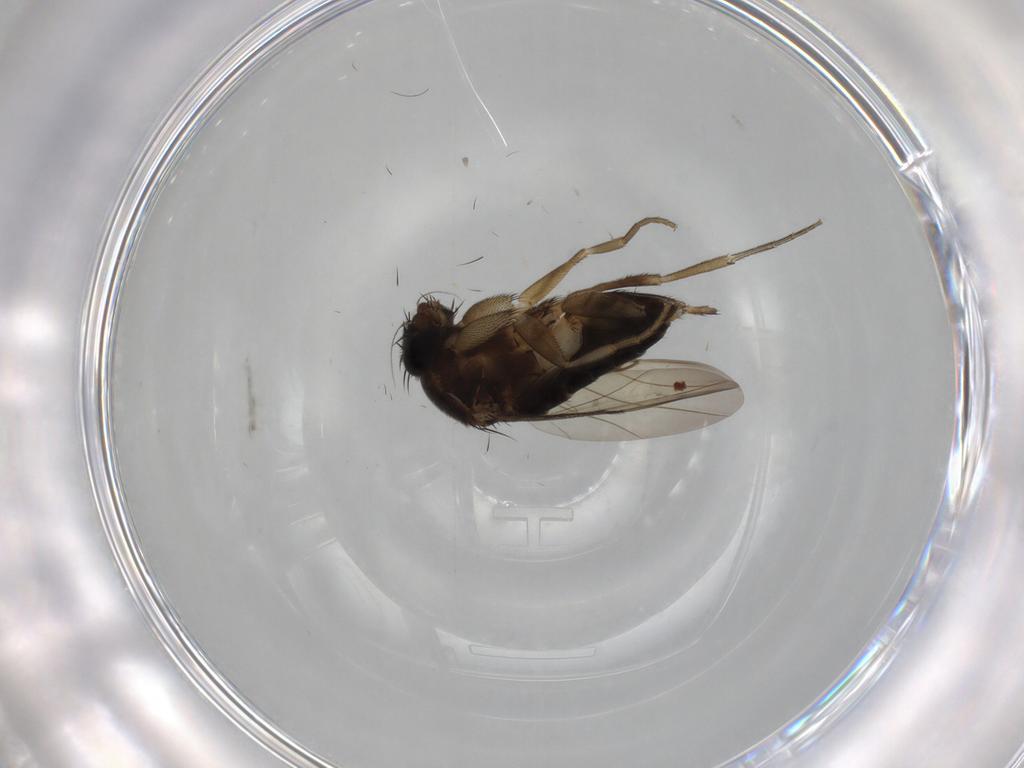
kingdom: Animalia
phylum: Arthropoda
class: Insecta
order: Diptera
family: Phoridae
